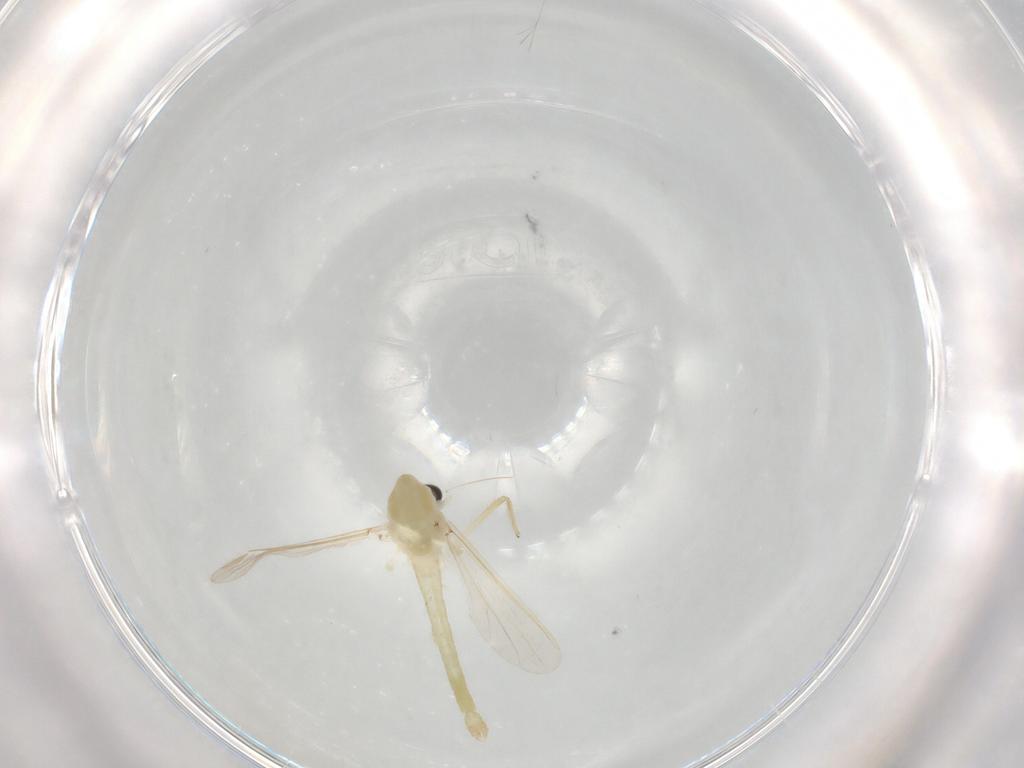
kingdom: Animalia
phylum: Arthropoda
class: Insecta
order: Diptera
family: Chironomidae
